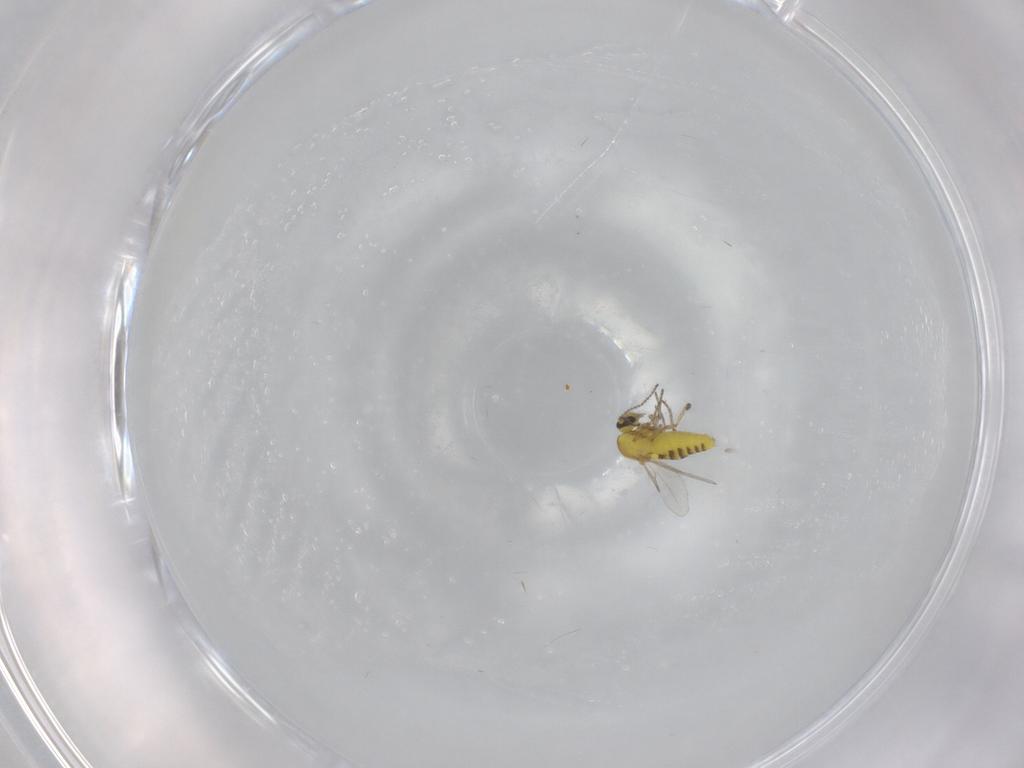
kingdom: Animalia
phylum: Arthropoda
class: Insecta
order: Diptera
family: Ceratopogonidae
